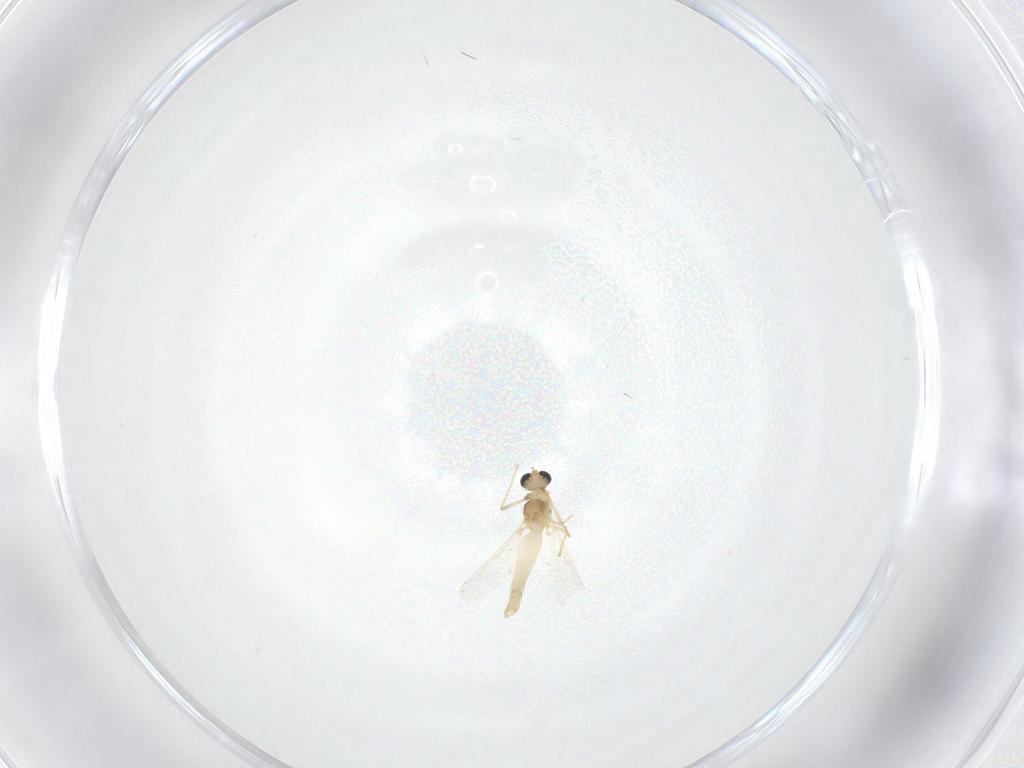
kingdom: Animalia
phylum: Arthropoda
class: Insecta
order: Diptera
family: Chironomidae
